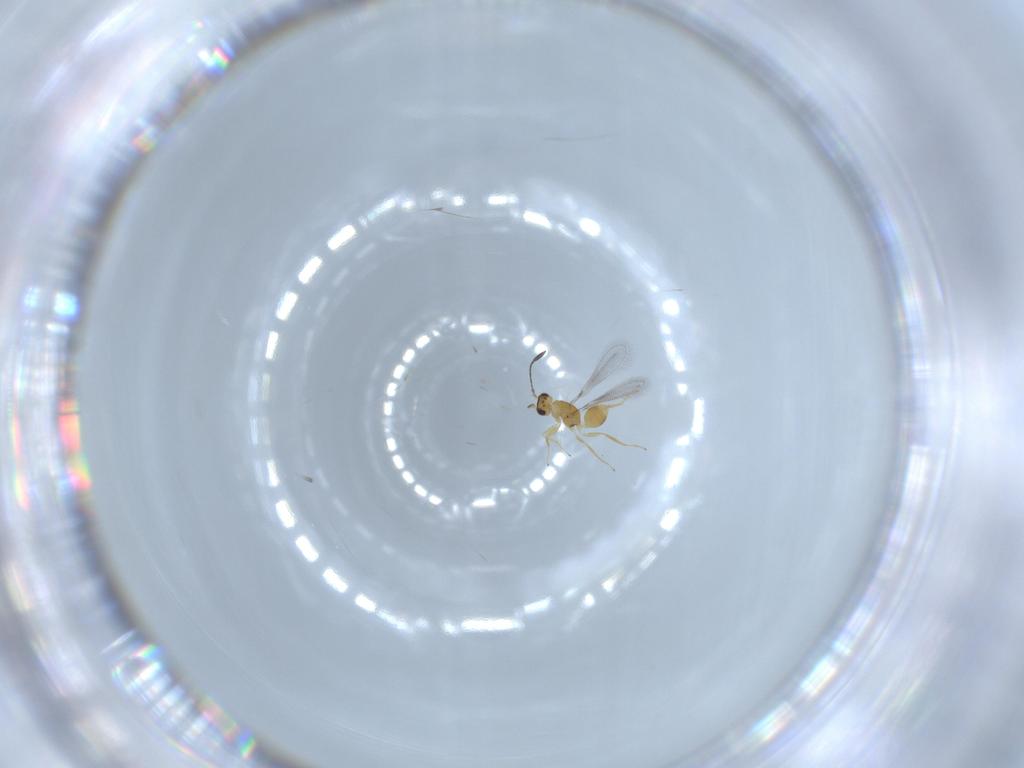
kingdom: Animalia
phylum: Arthropoda
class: Insecta
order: Hymenoptera
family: Mymaridae
